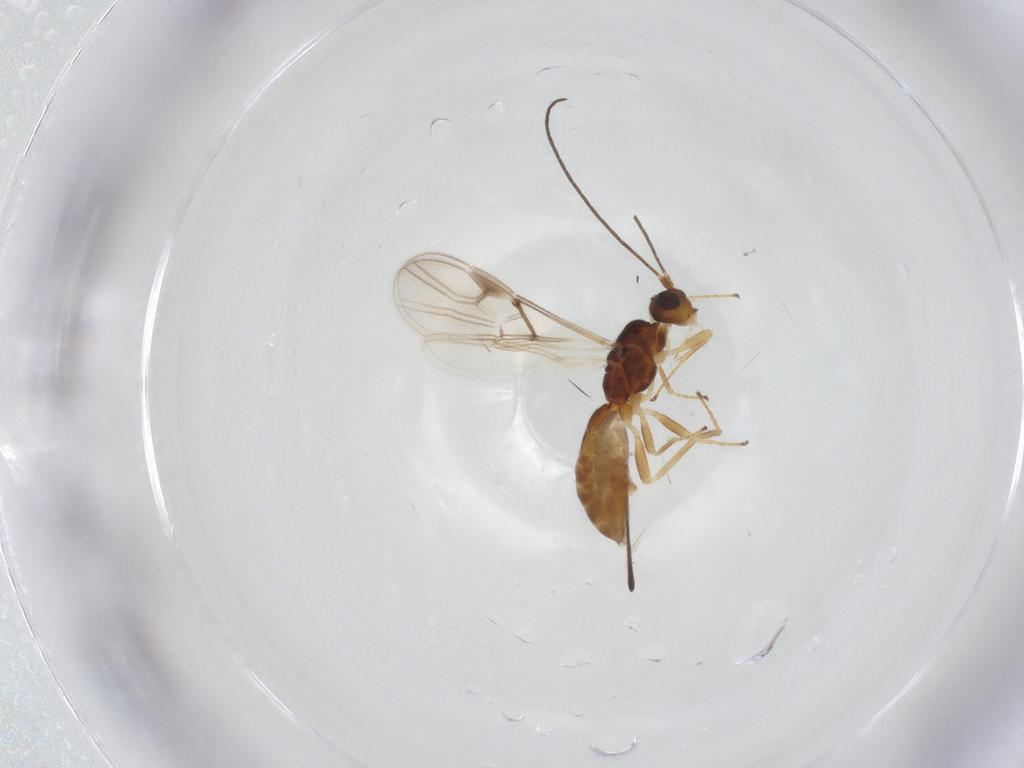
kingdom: Animalia
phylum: Arthropoda
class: Insecta
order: Hymenoptera
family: Braconidae
